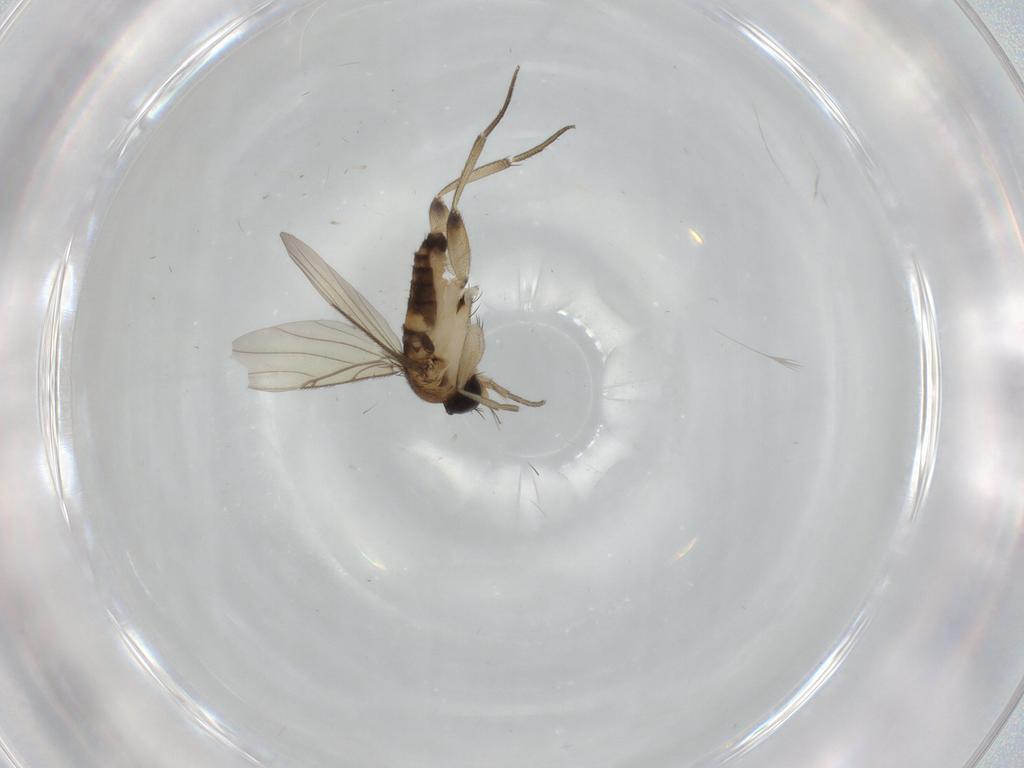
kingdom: Animalia
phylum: Arthropoda
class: Insecta
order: Diptera
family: Phoridae
